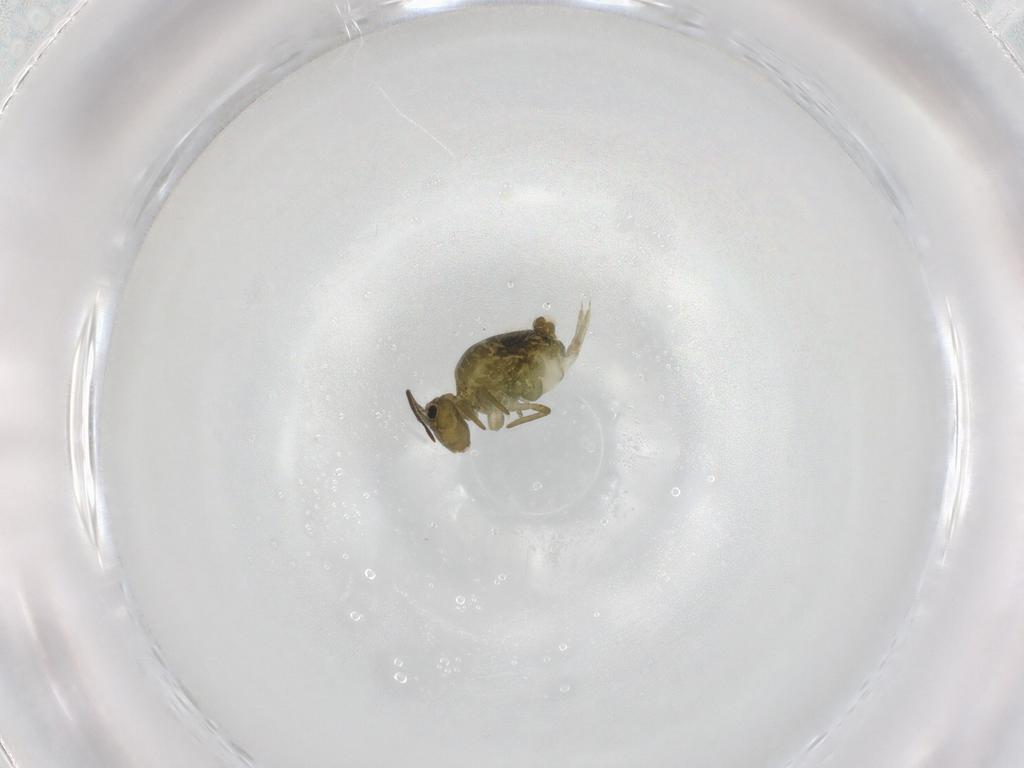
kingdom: Animalia
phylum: Arthropoda
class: Collembola
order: Symphypleona
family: Sminthuridae
